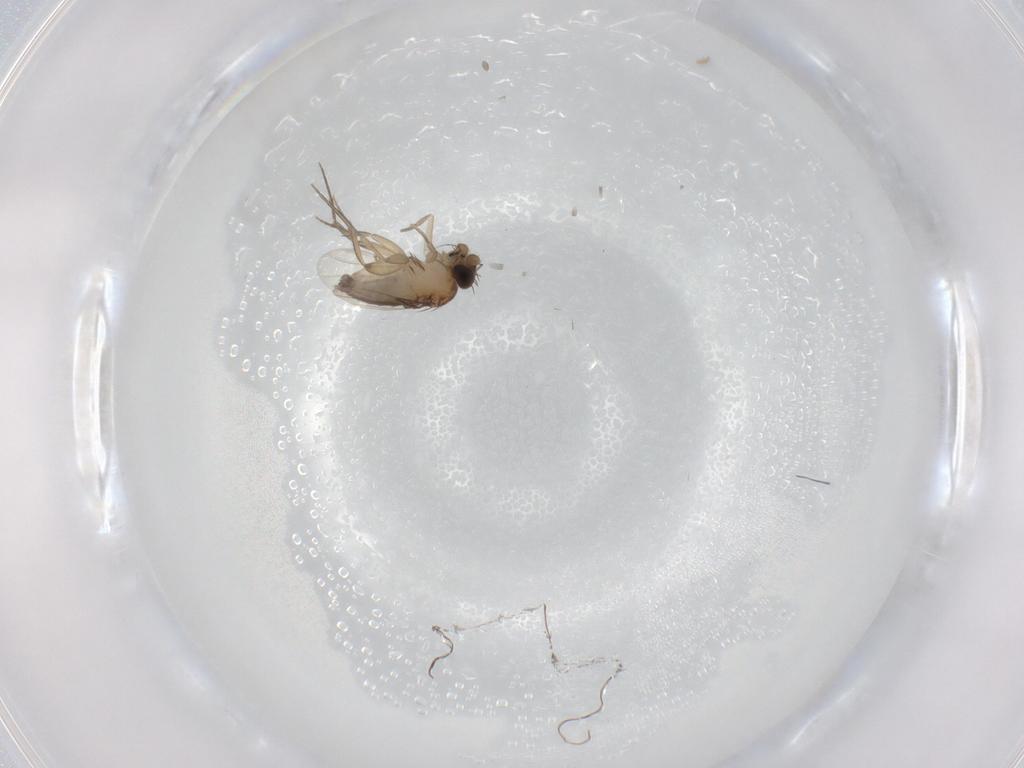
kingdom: Animalia
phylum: Arthropoda
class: Insecta
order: Diptera
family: Phoridae
